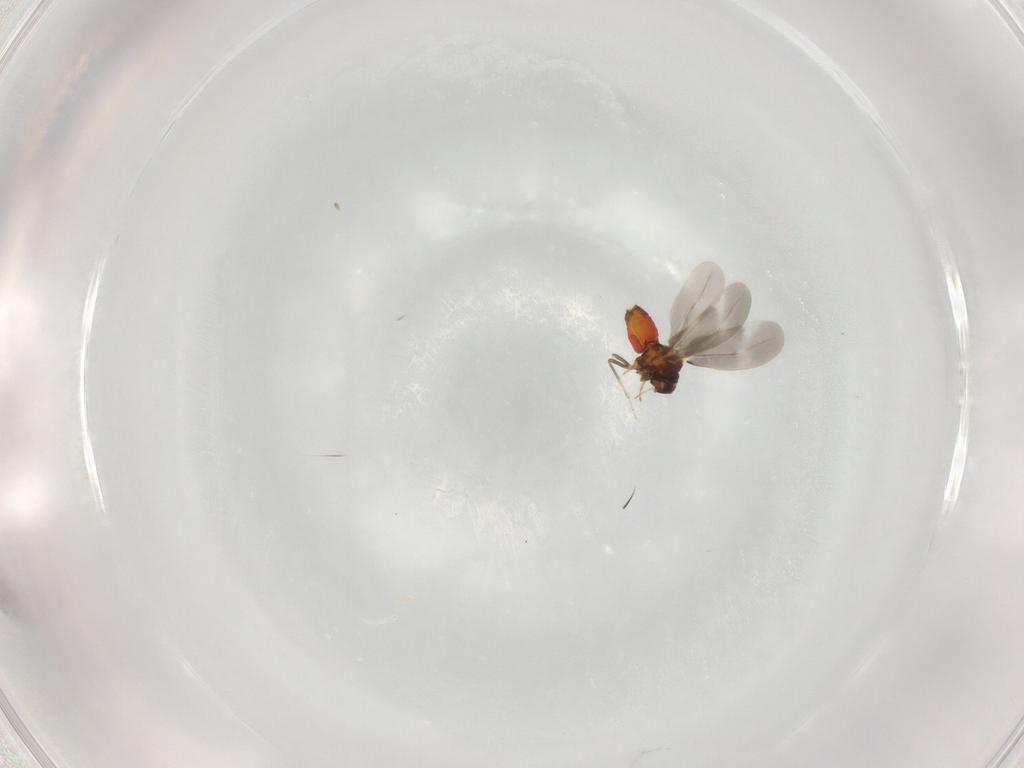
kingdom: Animalia
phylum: Arthropoda
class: Insecta
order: Hemiptera
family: Aleyrodidae
